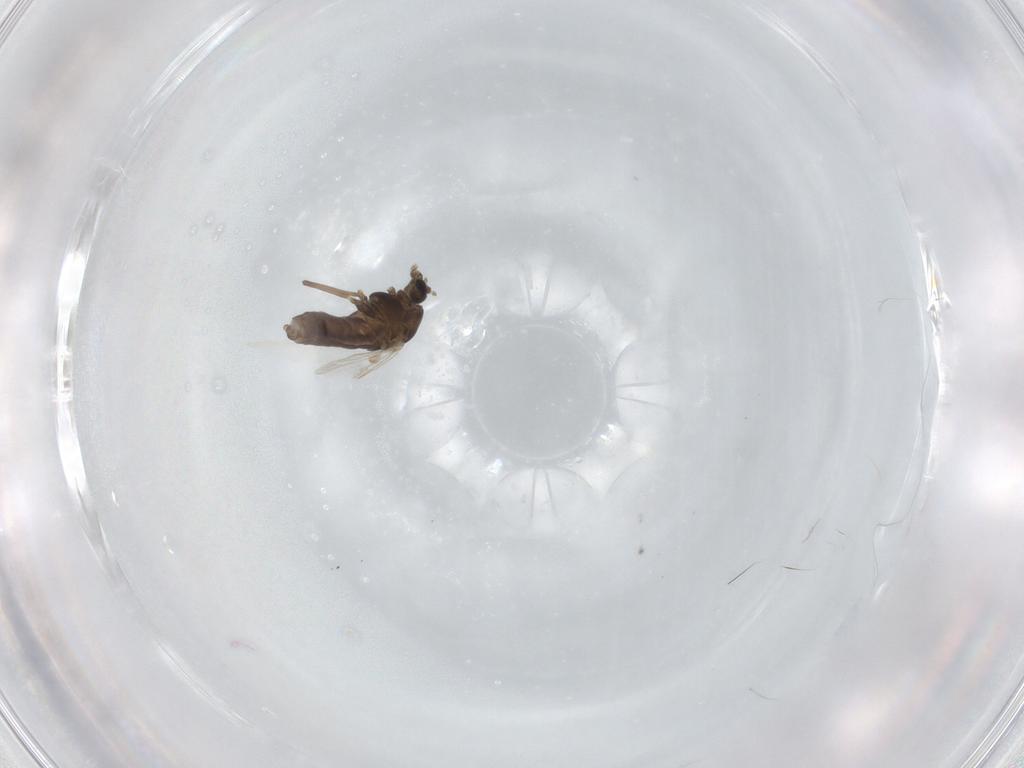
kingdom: Animalia
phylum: Arthropoda
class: Insecta
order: Diptera
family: Chironomidae
